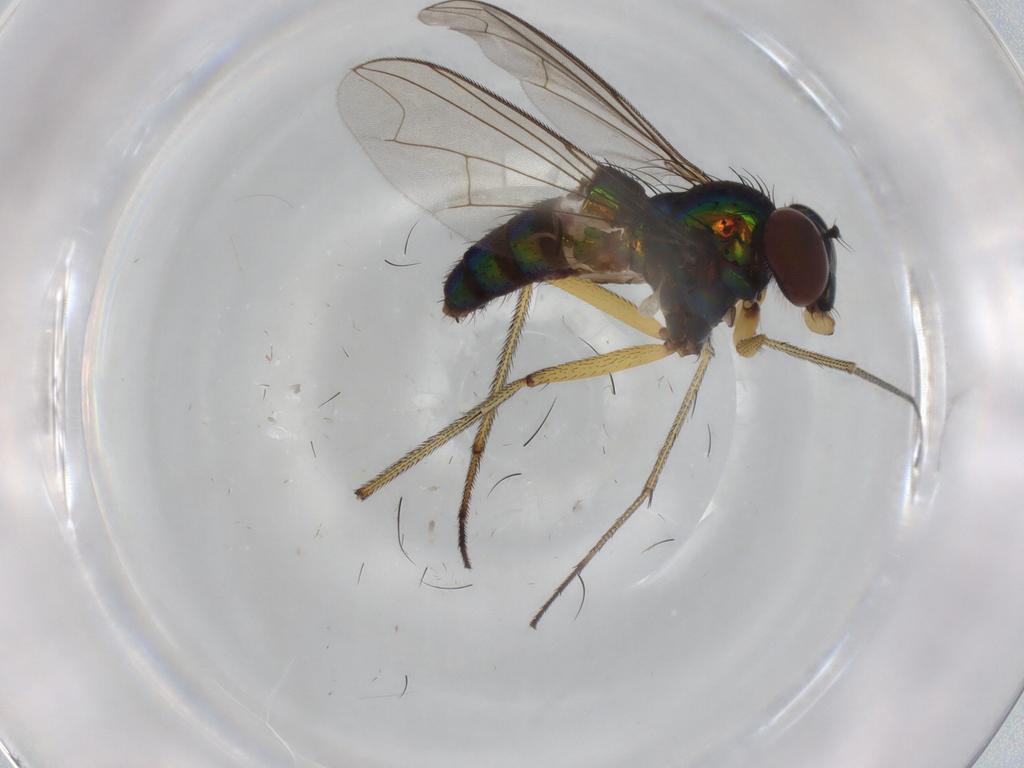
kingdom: Animalia
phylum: Arthropoda
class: Insecta
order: Diptera
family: Dolichopodidae
